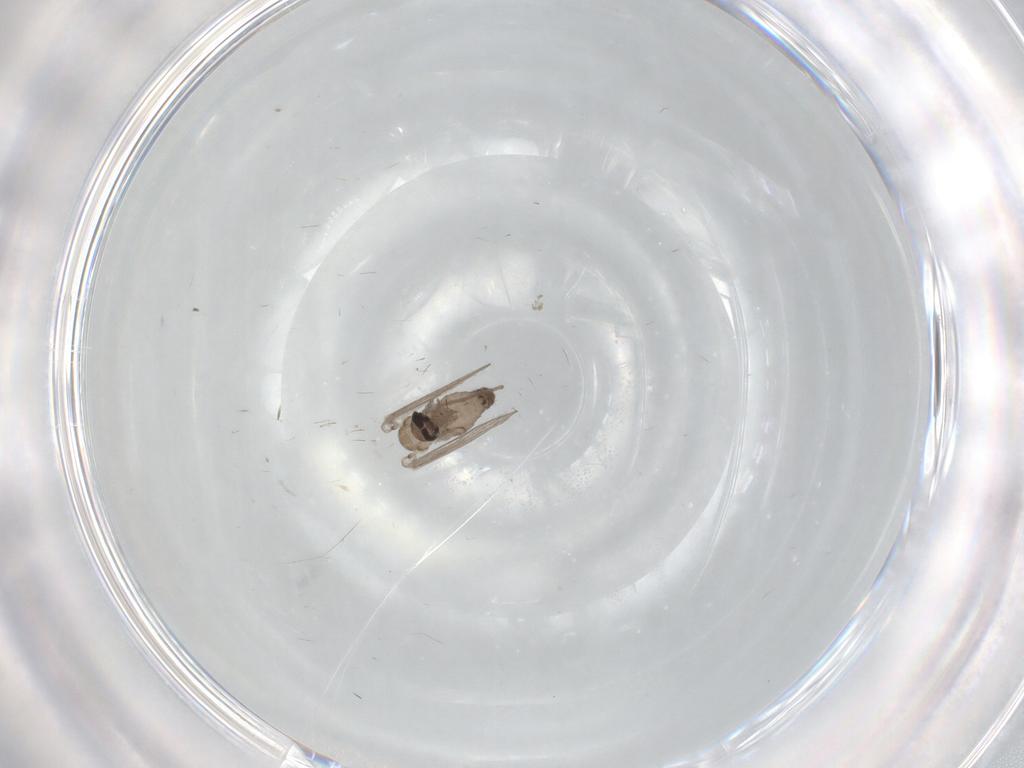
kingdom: Animalia
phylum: Arthropoda
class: Insecta
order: Diptera
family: Psychodidae
